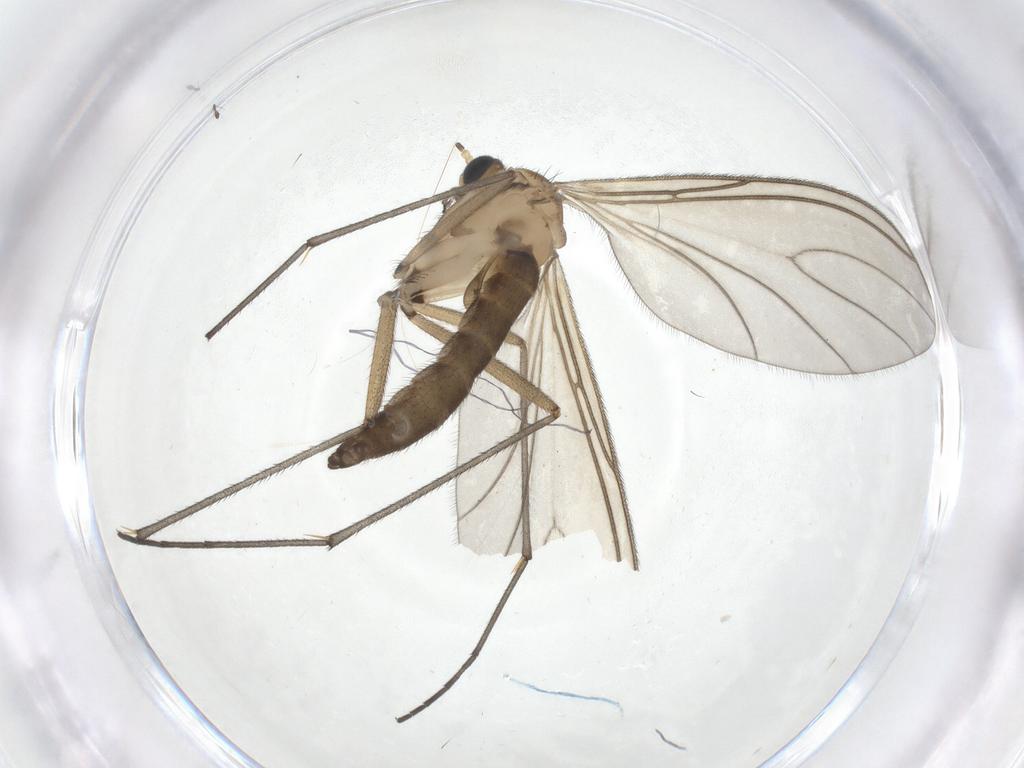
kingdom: Animalia
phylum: Arthropoda
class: Insecta
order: Diptera
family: Sciaridae
